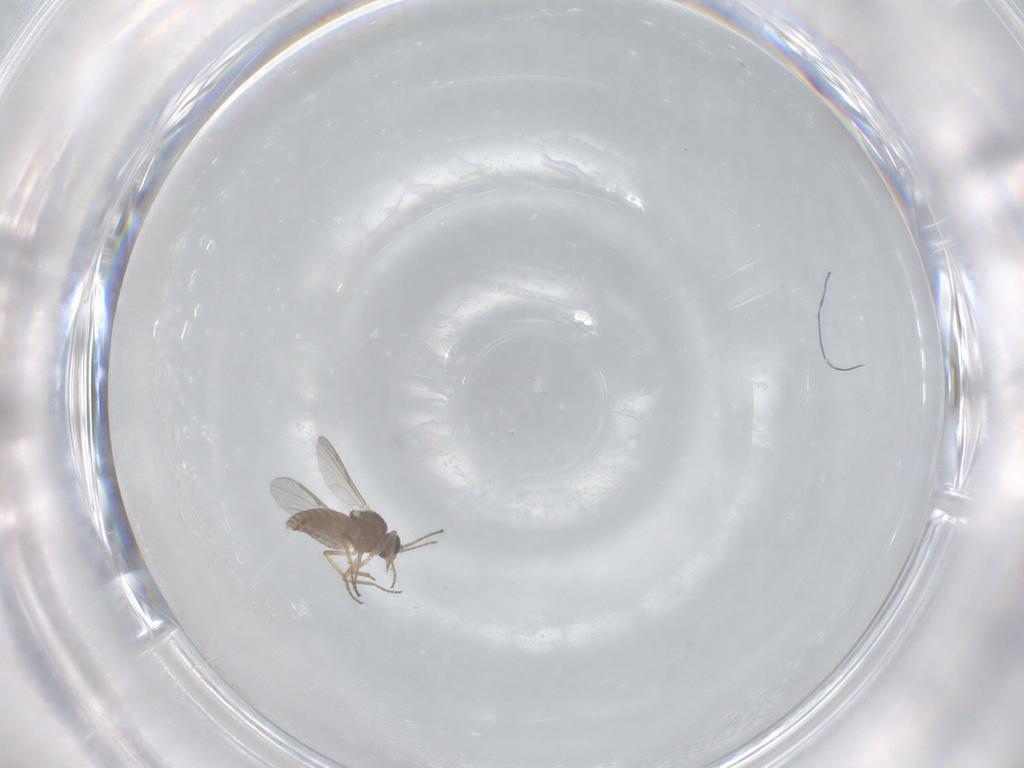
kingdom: Animalia
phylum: Arthropoda
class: Insecta
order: Diptera
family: Ceratopogonidae
